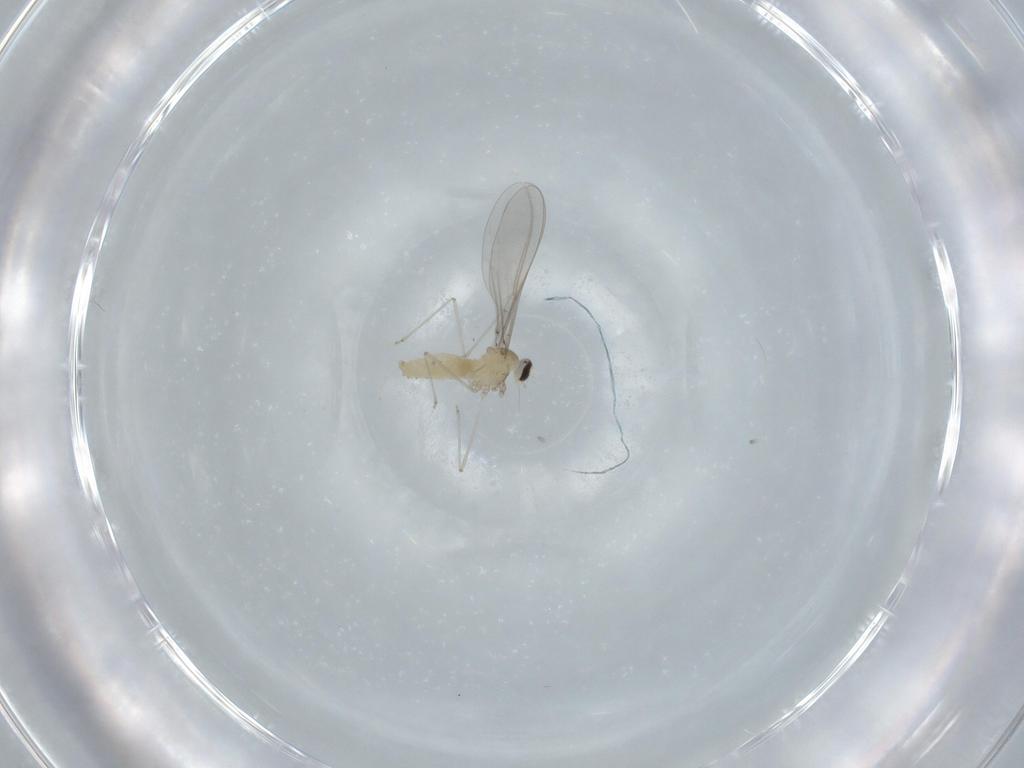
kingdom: Animalia
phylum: Arthropoda
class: Insecta
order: Diptera
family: Cecidomyiidae
